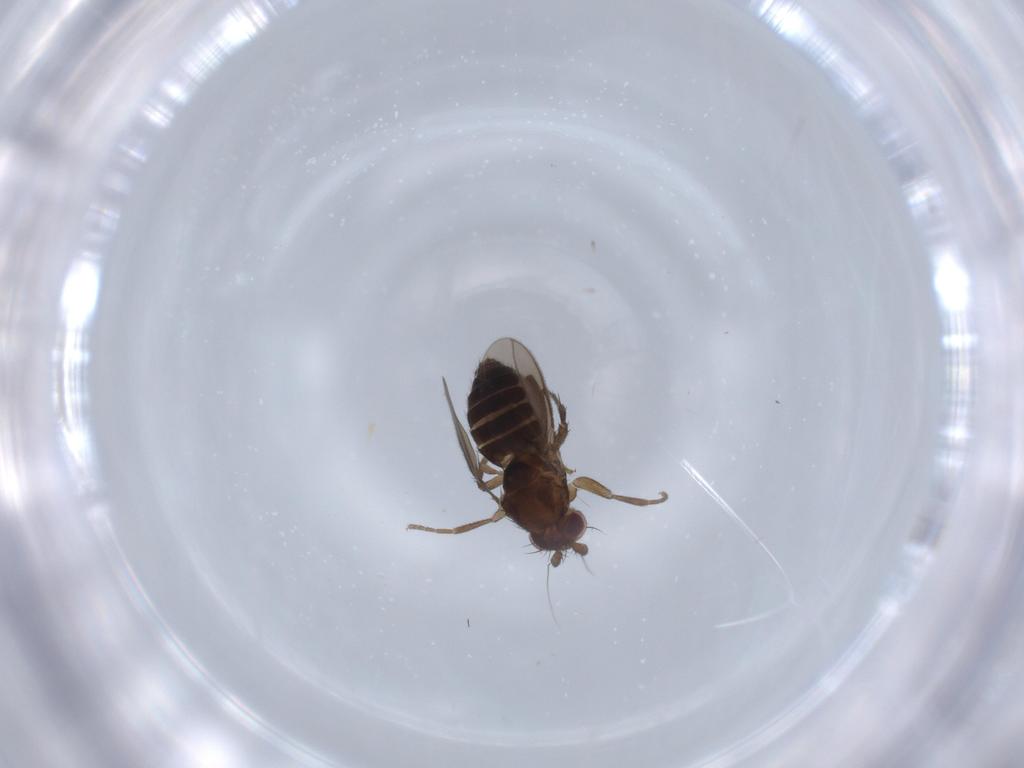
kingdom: Animalia
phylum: Arthropoda
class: Insecta
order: Diptera
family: Sphaeroceridae
